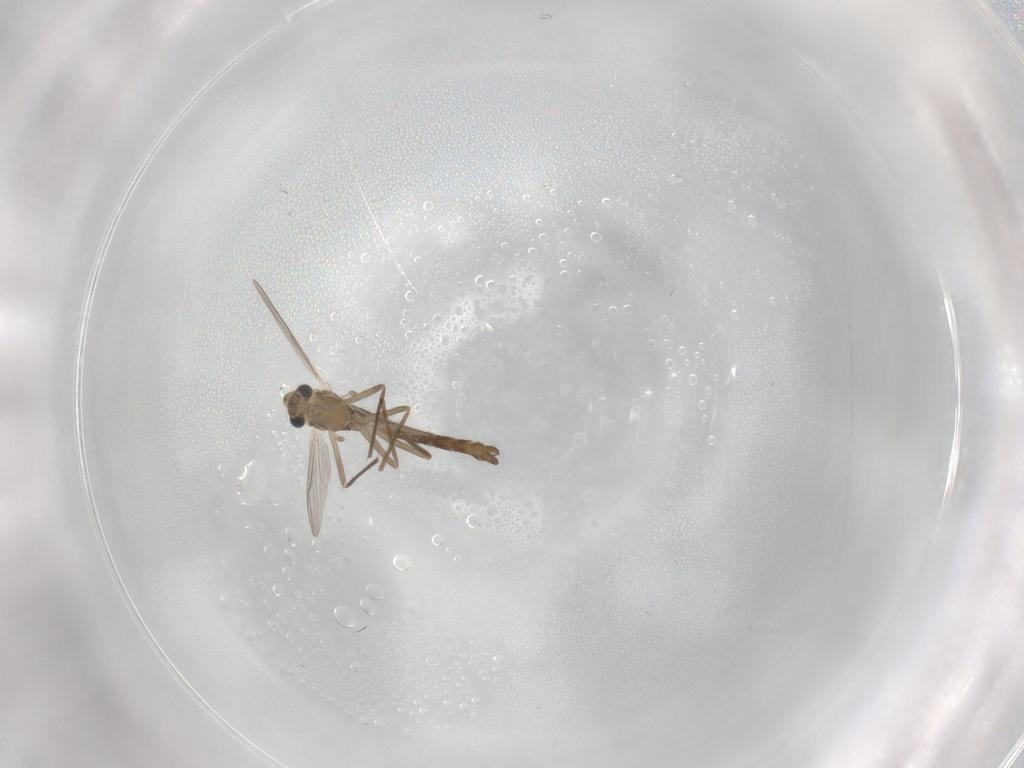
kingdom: Animalia
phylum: Arthropoda
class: Insecta
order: Diptera
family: Chironomidae
